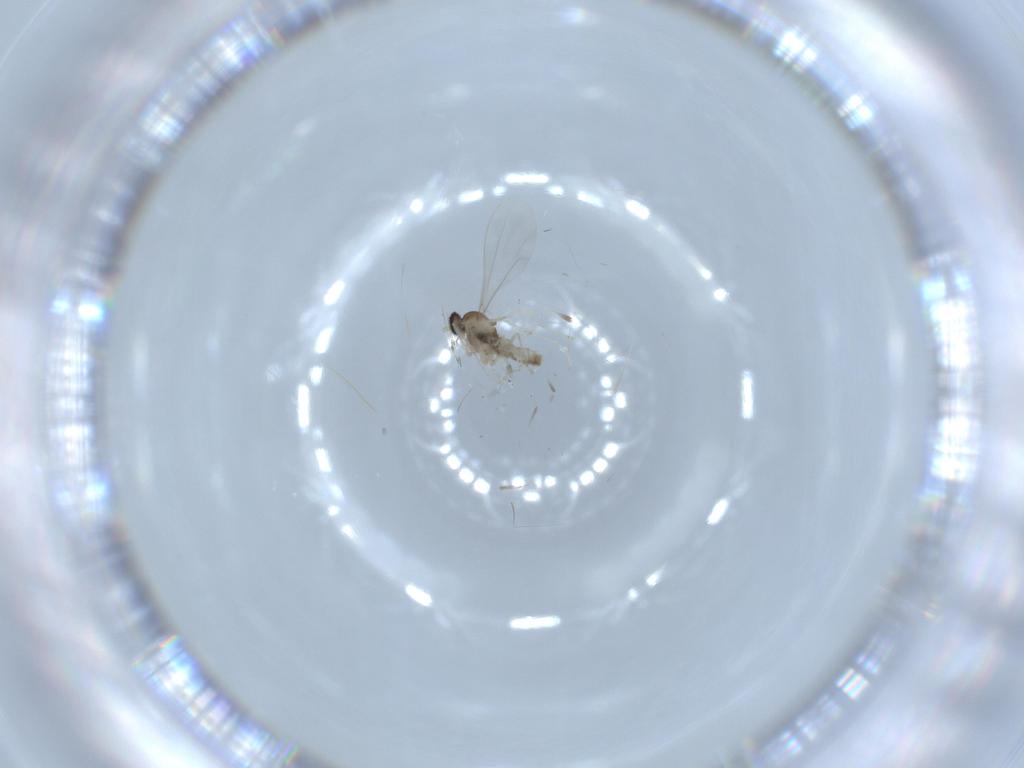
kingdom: Animalia
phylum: Arthropoda
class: Insecta
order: Diptera
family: Cecidomyiidae
